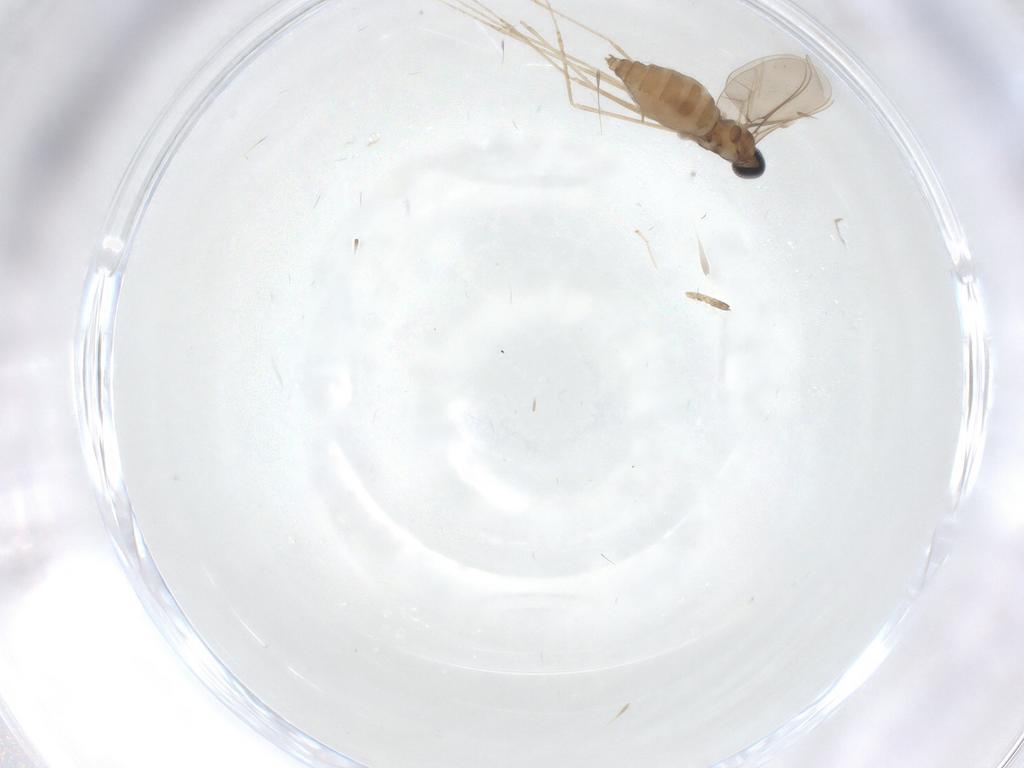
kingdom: Animalia
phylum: Arthropoda
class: Insecta
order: Diptera
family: Cecidomyiidae
